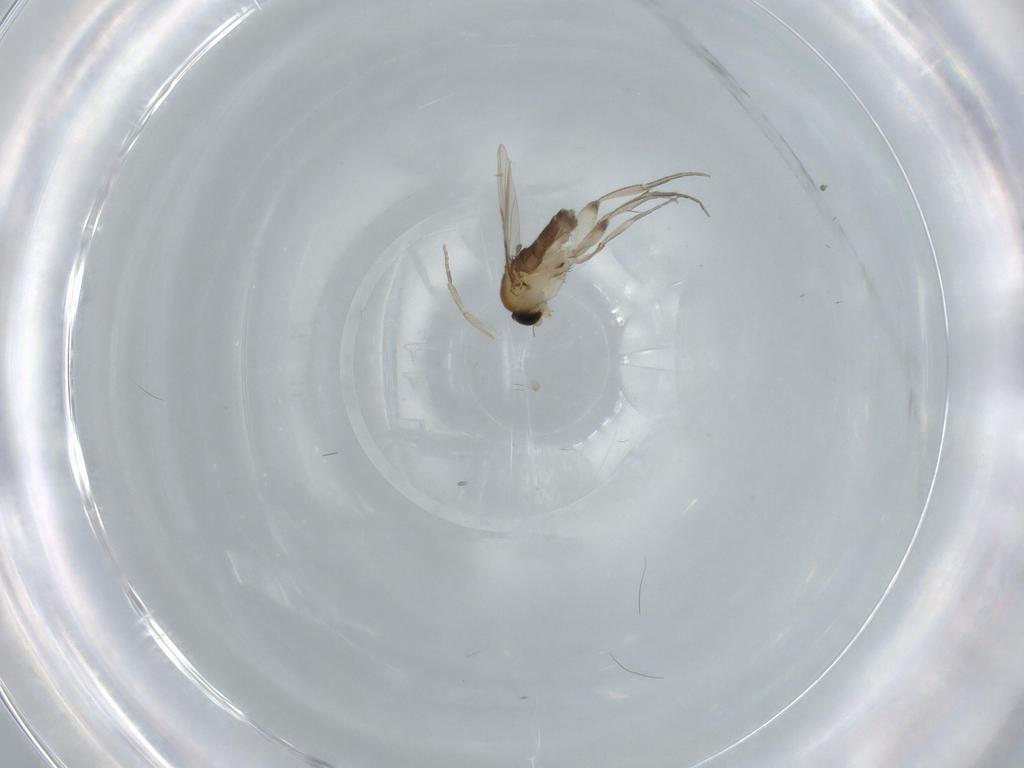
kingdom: Animalia
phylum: Arthropoda
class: Insecta
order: Diptera
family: Phoridae
